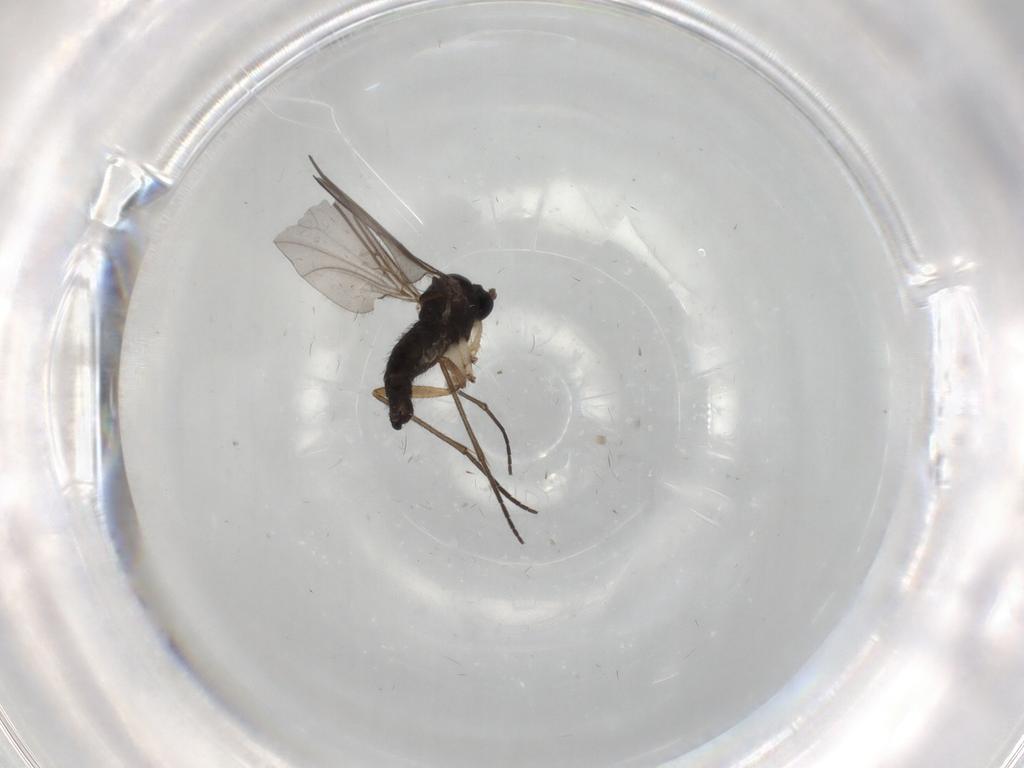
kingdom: Animalia
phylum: Arthropoda
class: Insecta
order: Diptera
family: Sciaridae
